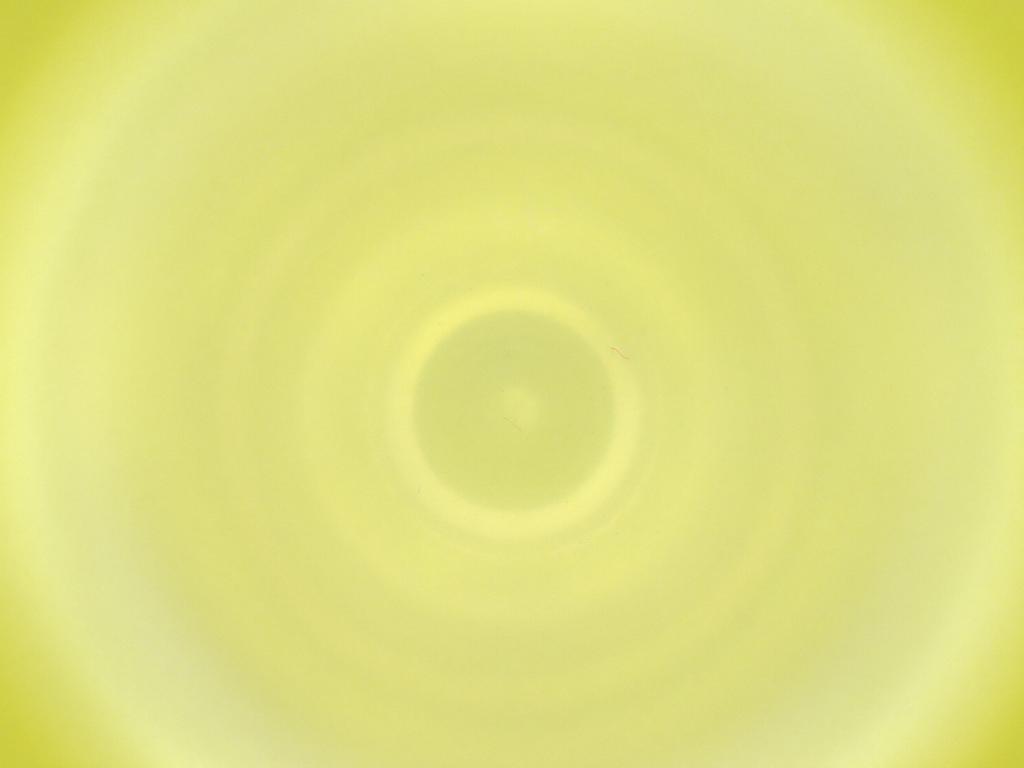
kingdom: Animalia
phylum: Arthropoda
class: Insecta
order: Diptera
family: Cecidomyiidae
